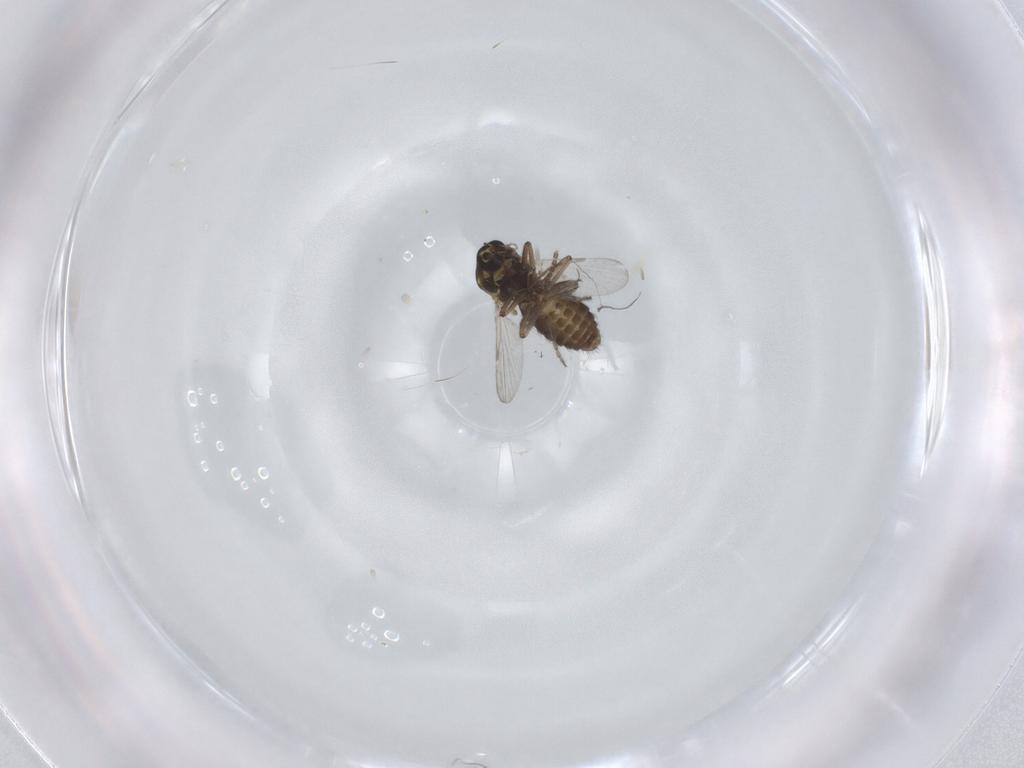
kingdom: Animalia
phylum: Arthropoda
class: Insecta
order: Diptera
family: Ceratopogonidae
